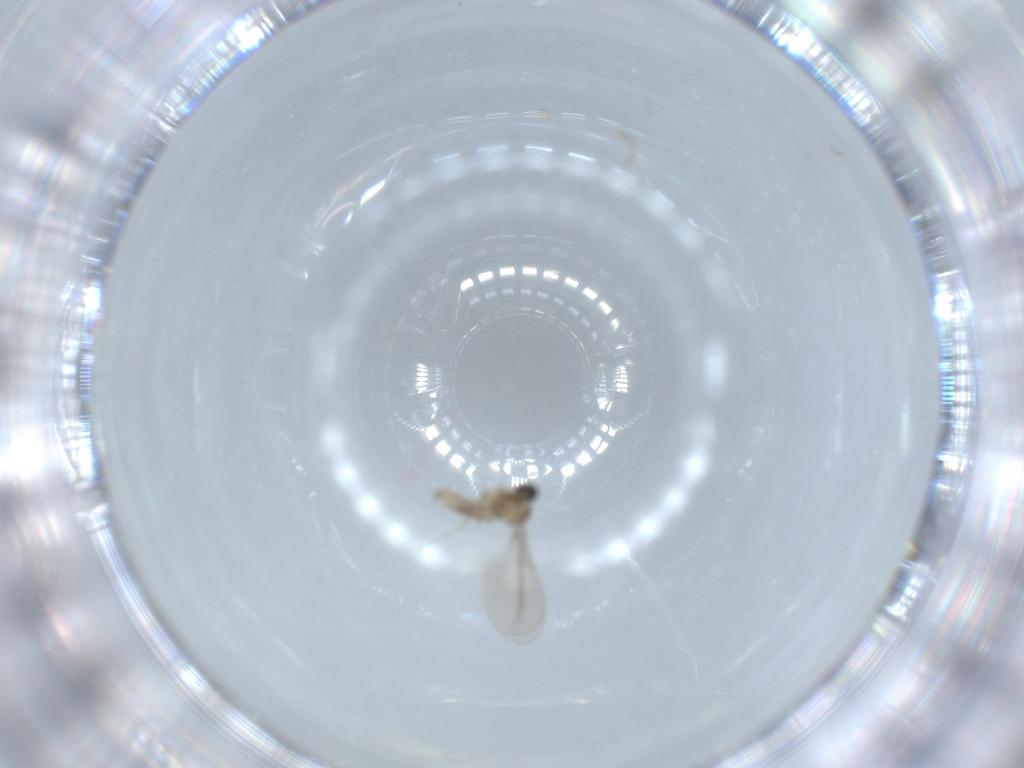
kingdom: Animalia
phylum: Arthropoda
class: Insecta
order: Diptera
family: Cecidomyiidae
